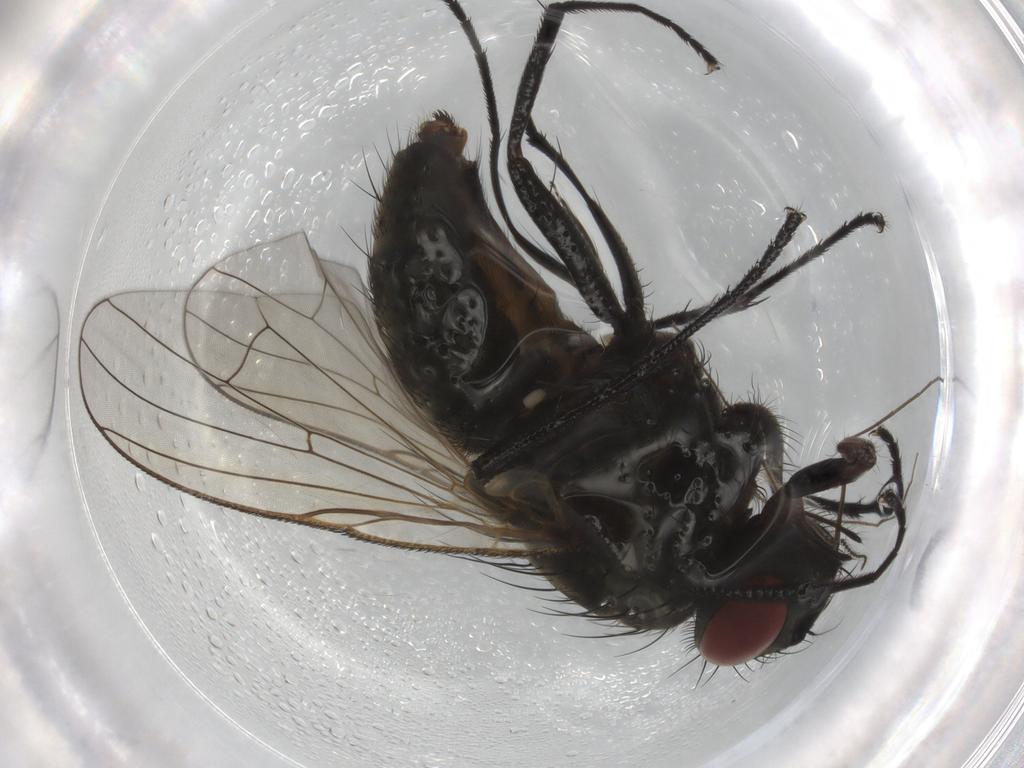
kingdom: Animalia
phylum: Arthropoda
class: Insecta
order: Diptera
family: Muscidae
